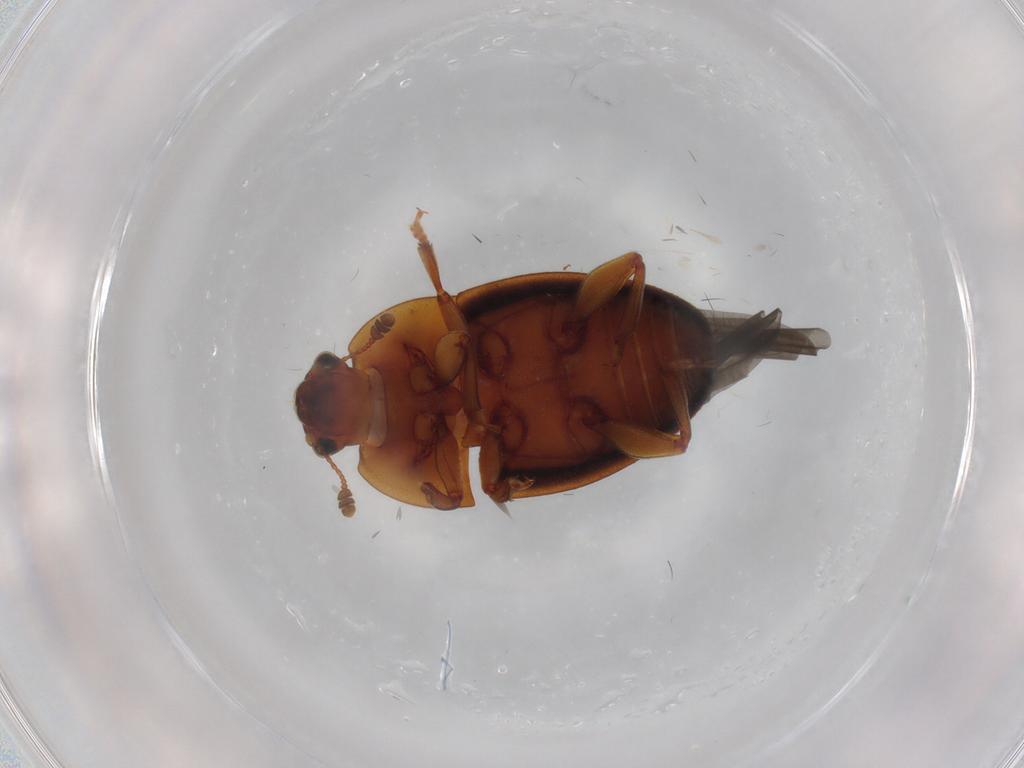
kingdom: Animalia
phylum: Arthropoda
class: Insecta
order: Coleoptera
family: Nitidulidae
